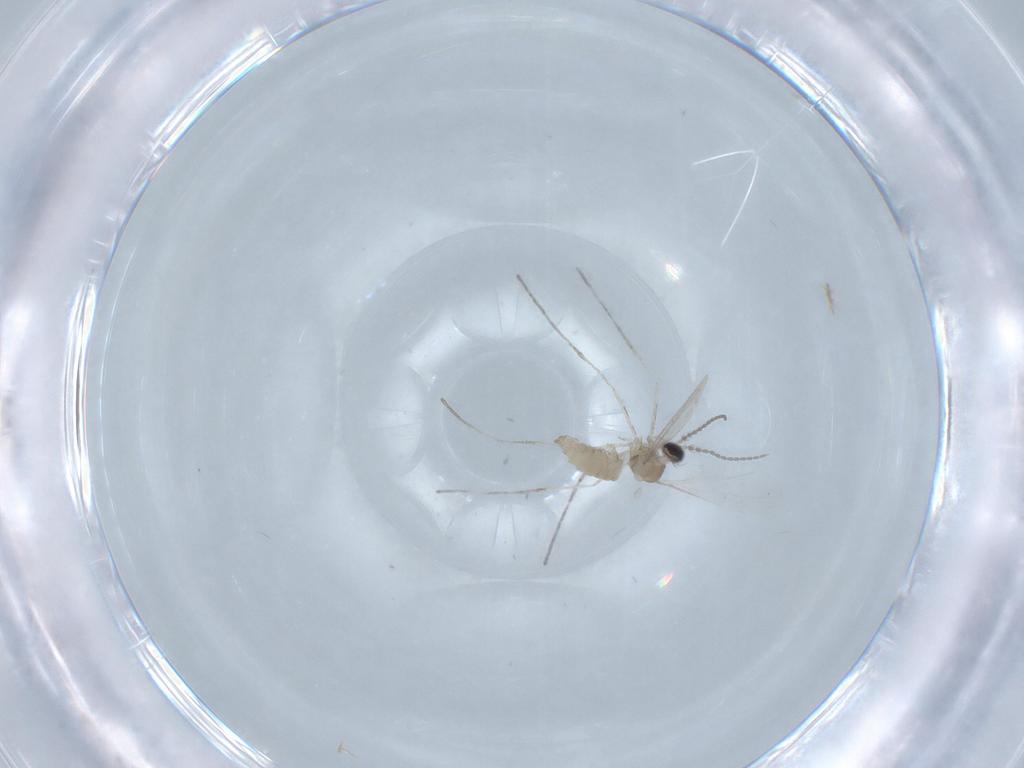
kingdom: Animalia
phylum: Arthropoda
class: Insecta
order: Diptera
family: Cecidomyiidae
